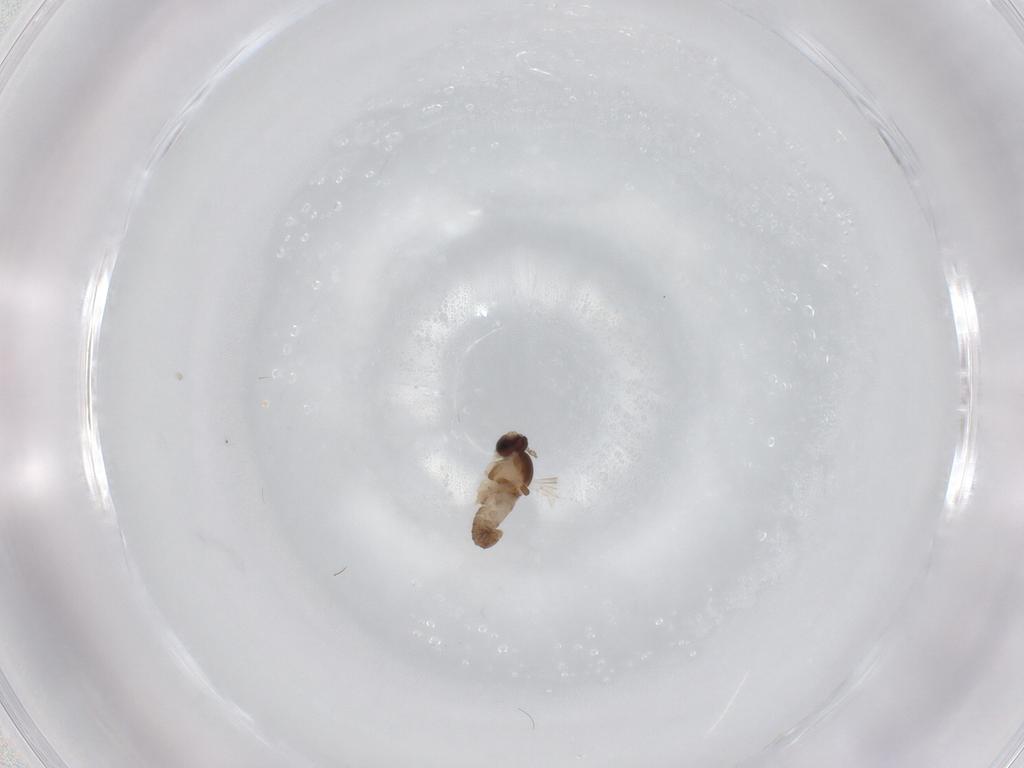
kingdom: Animalia
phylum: Arthropoda
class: Insecta
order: Diptera
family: Cecidomyiidae
